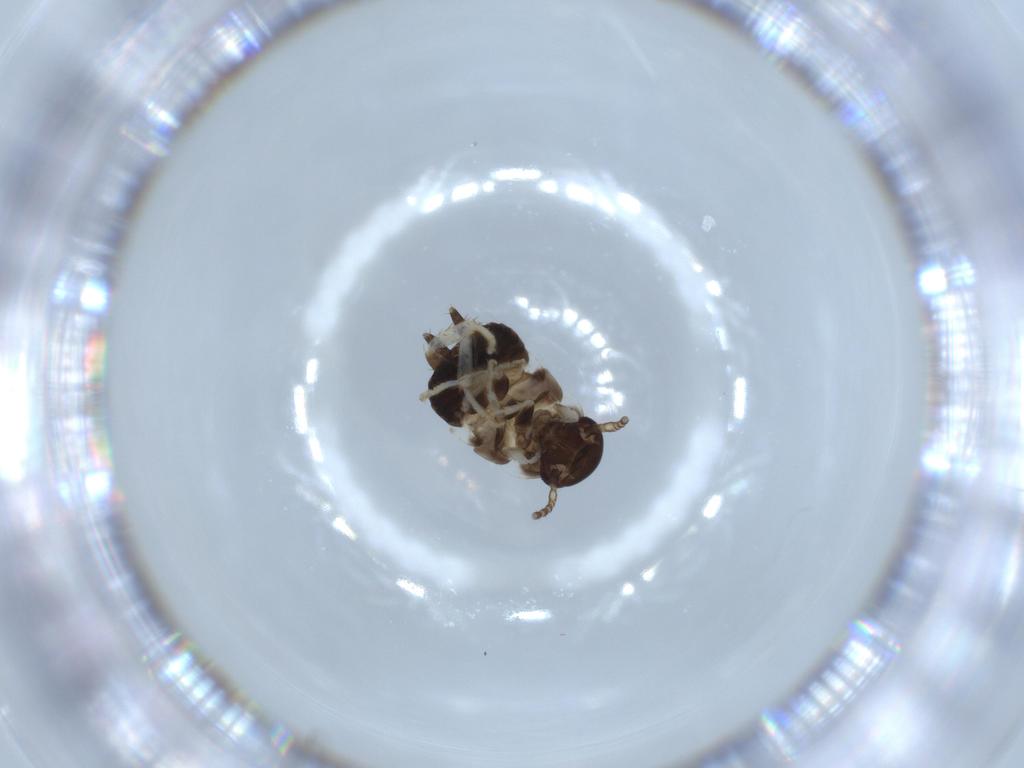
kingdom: Animalia
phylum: Arthropoda
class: Insecta
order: Blattodea
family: Ectobiidae
